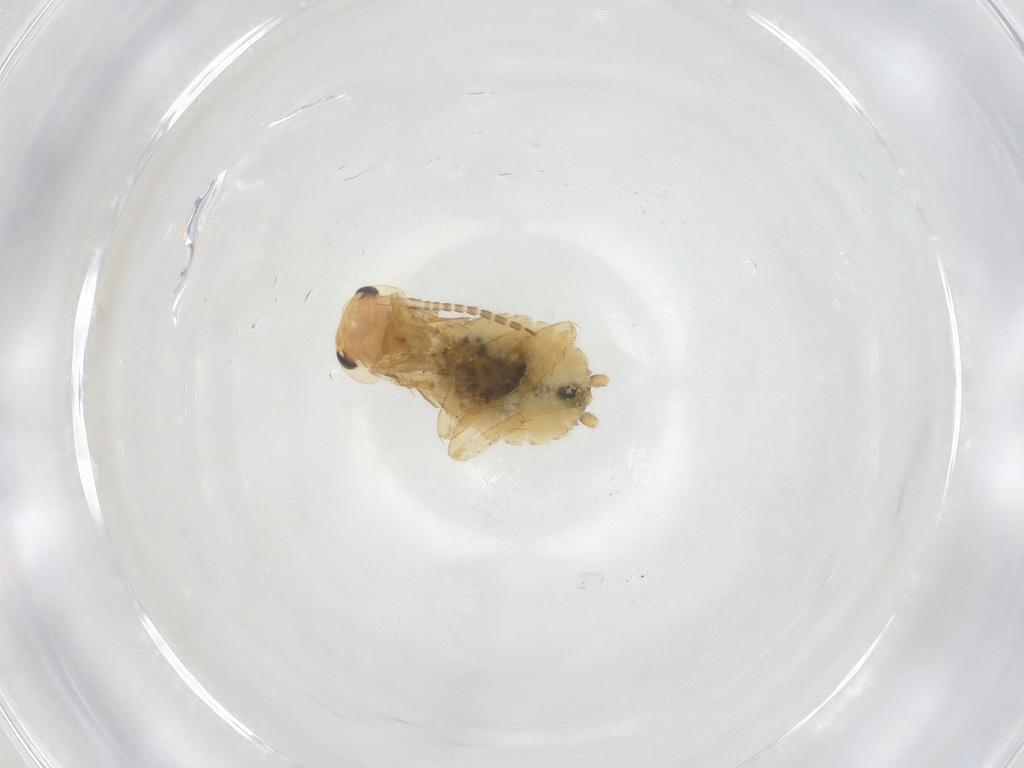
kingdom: Animalia
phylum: Arthropoda
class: Insecta
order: Blattodea
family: Ectobiidae
